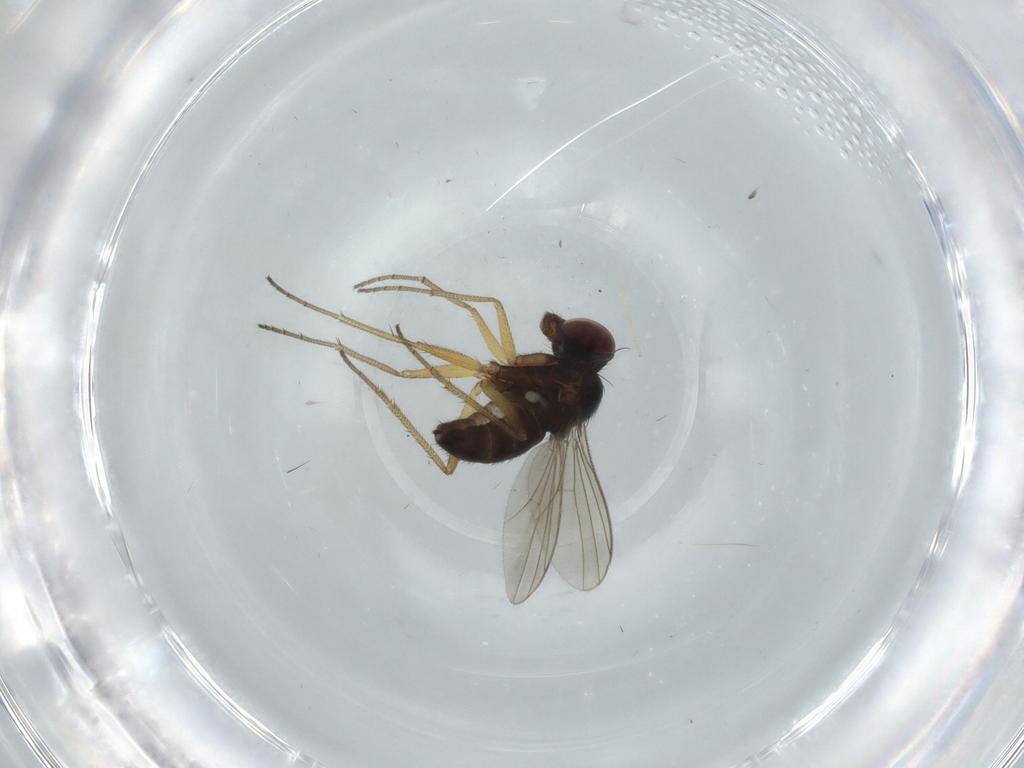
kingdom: Animalia
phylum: Arthropoda
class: Insecta
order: Diptera
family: Dolichopodidae
